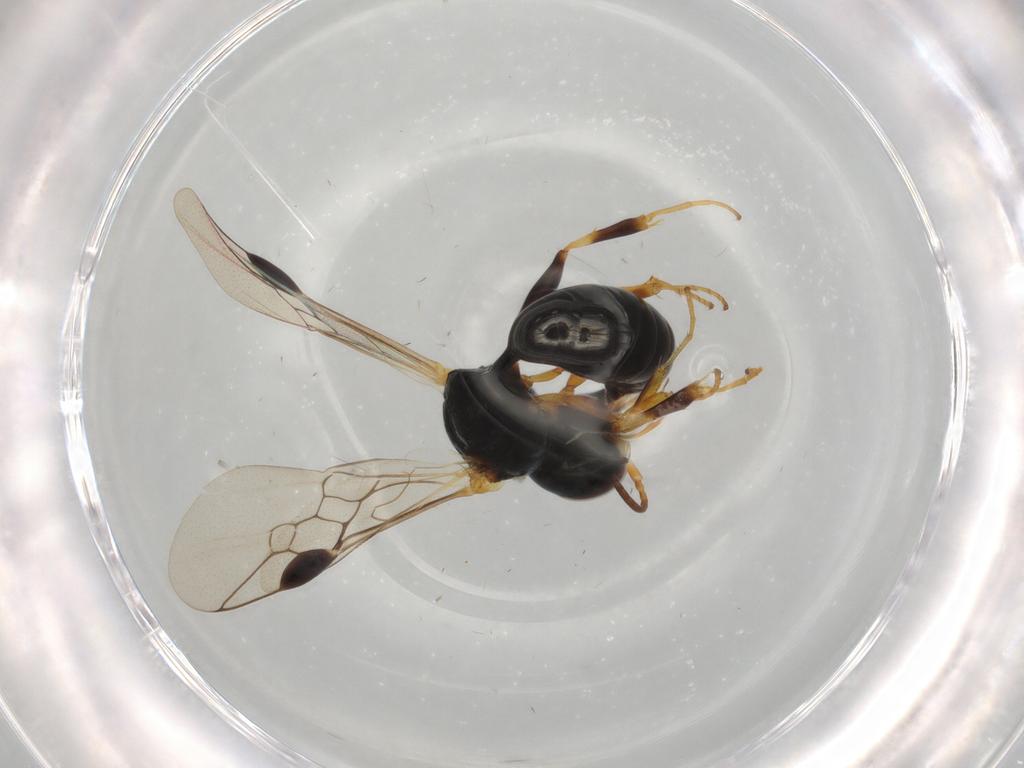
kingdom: Animalia
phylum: Arthropoda
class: Insecta
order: Hymenoptera
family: Pemphredonidae
